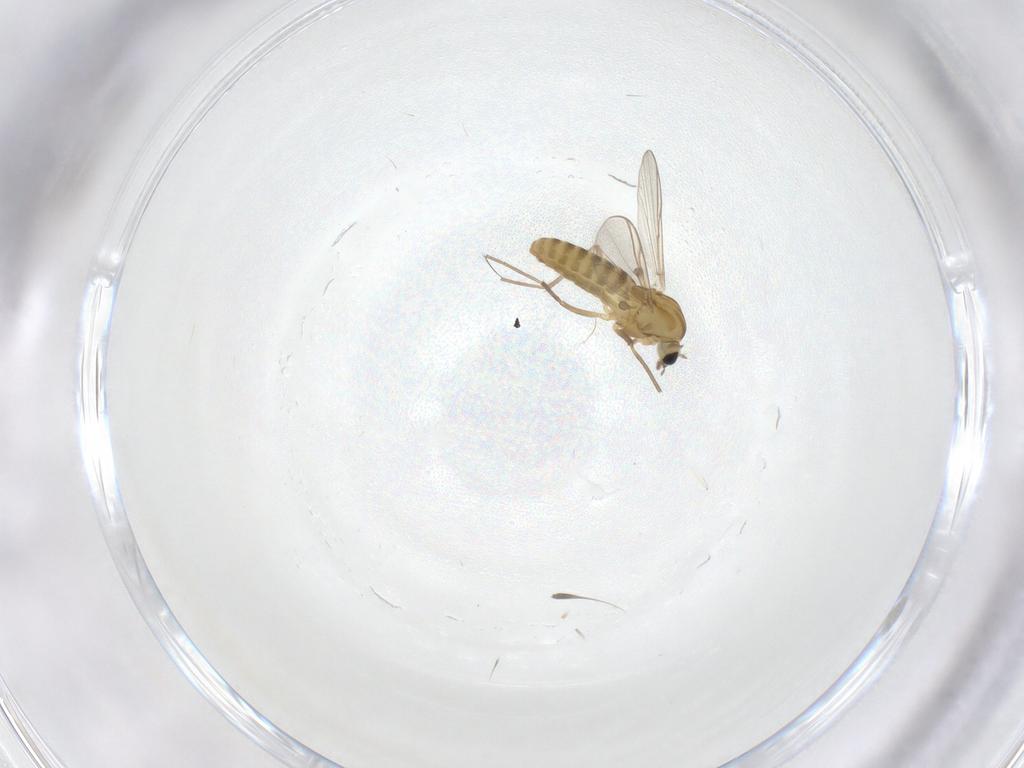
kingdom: Animalia
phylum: Arthropoda
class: Insecta
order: Diptera
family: Chironomidae
